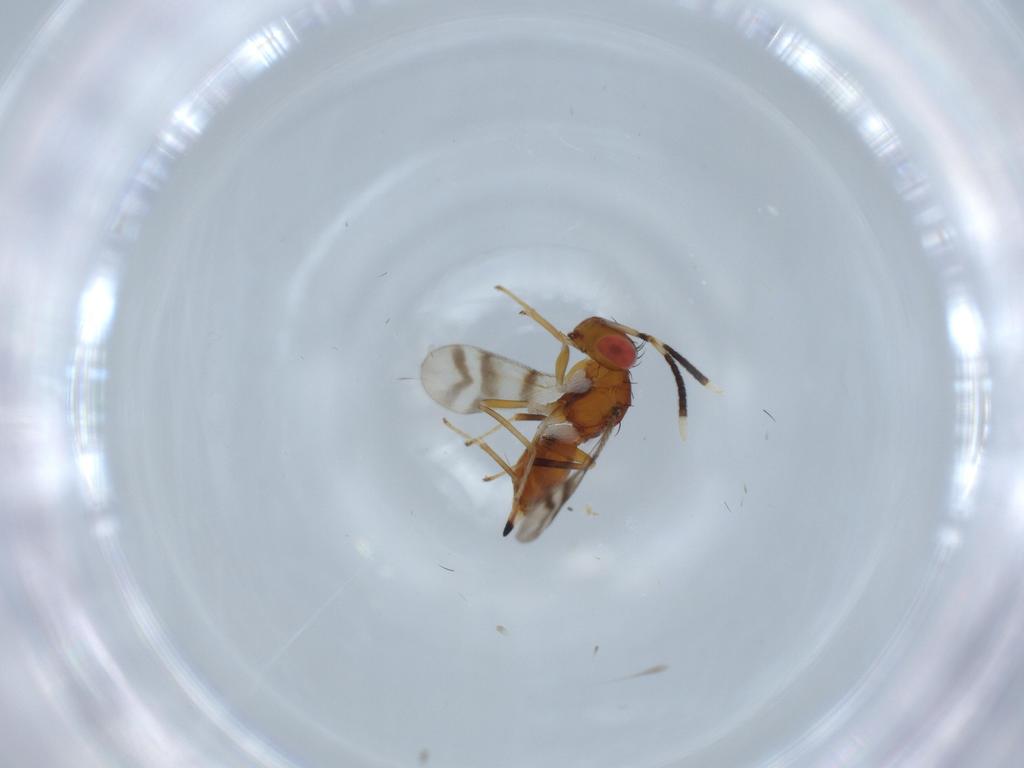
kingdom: Animalia
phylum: Arthropoda
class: Insecta
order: Hymenoptera
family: Diparidae
